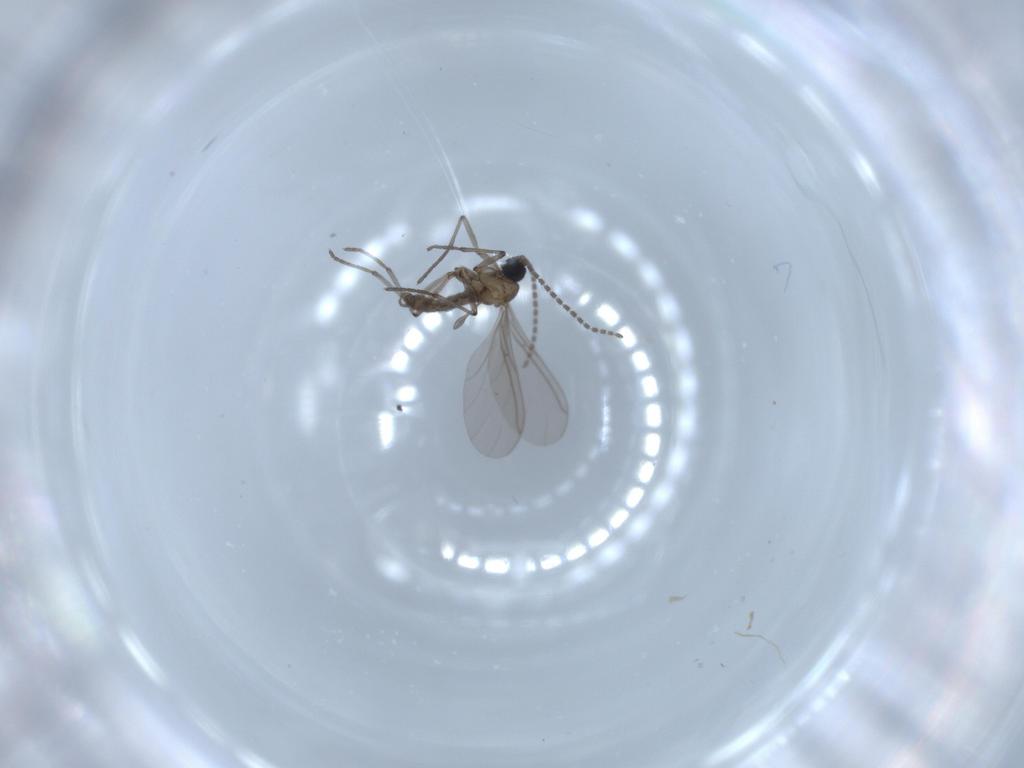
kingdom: Animalia
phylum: Arthropoda
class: Insecta
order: Diptera
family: Sciaridae
